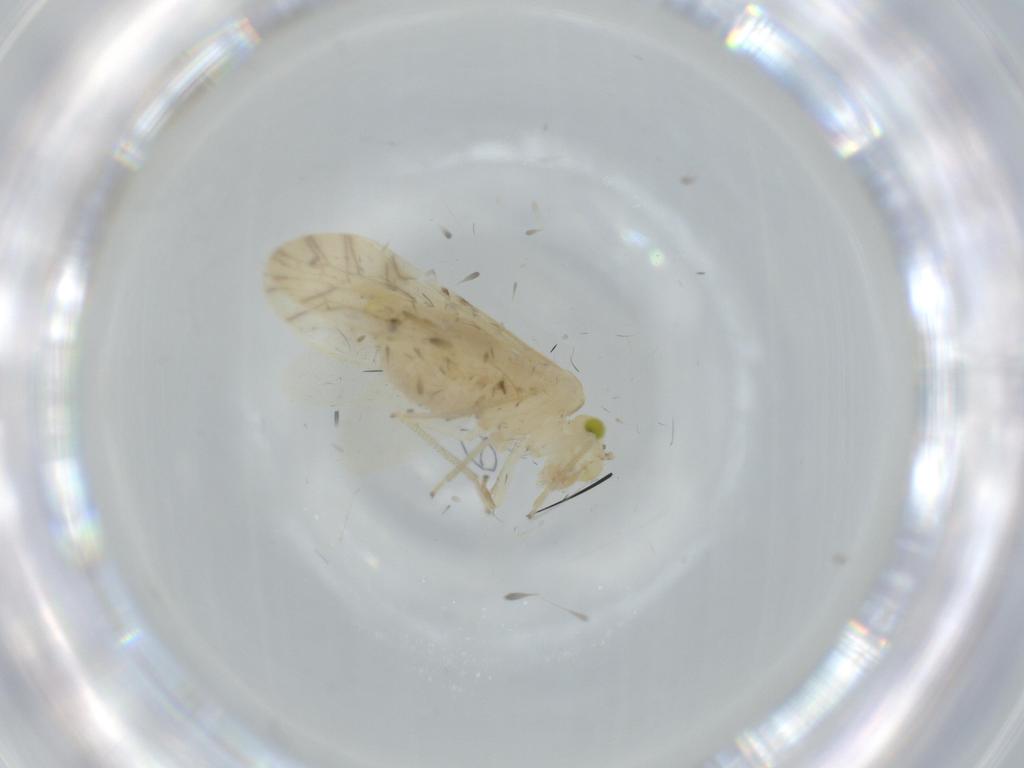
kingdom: Animalia
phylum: Arthropoda
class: Insecta
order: Psocodea
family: Caeciliusidae
